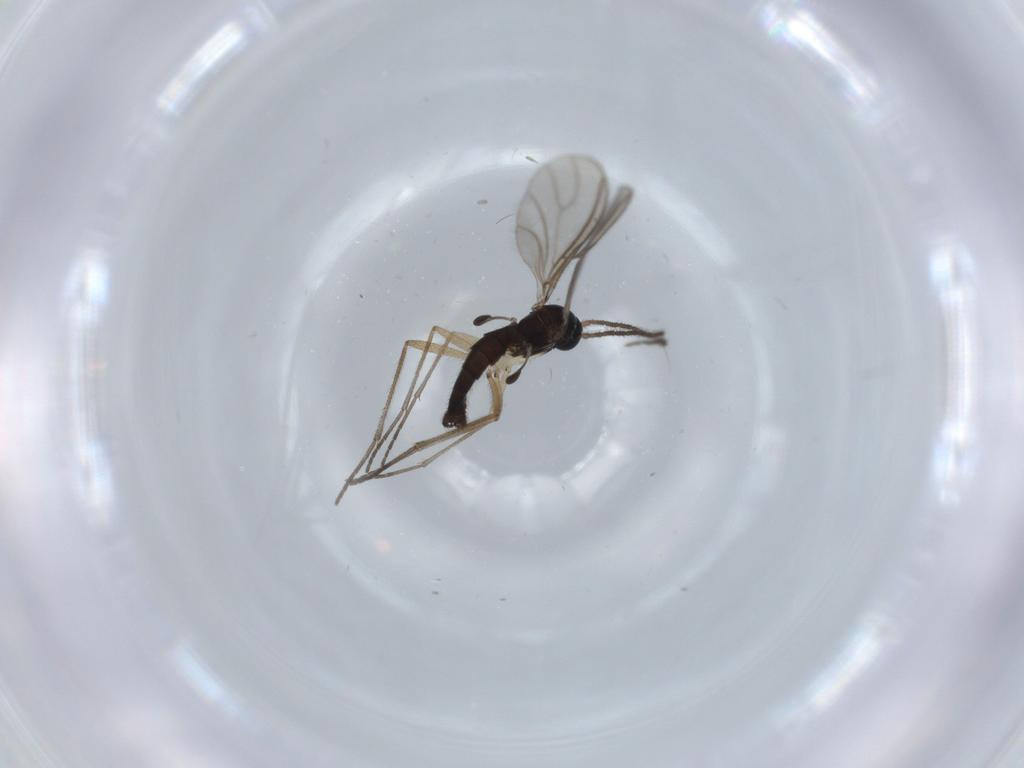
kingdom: Animalia
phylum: Arthropoda
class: Insecta
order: Diptera
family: Sciaridae
